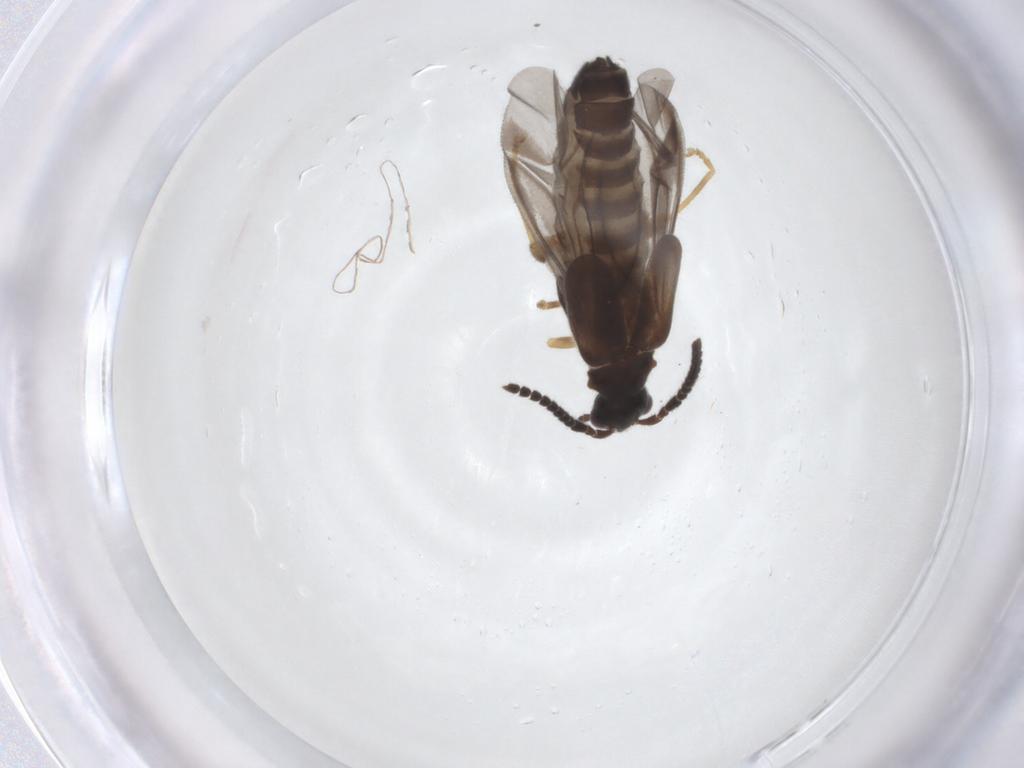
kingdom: Animalia
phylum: Arthropoda
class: Insecta
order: Coleoptera
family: Cantharidae
